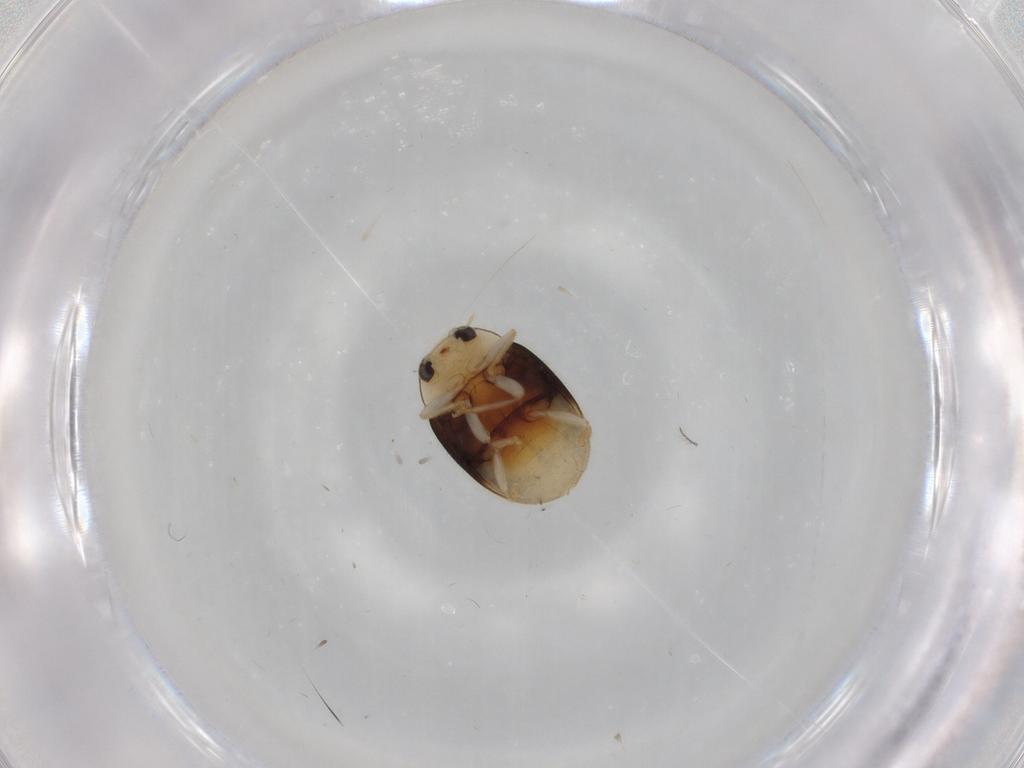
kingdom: Animalia
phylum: Arthropoda
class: Insecta
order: Coleoptera
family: Coccinellidae
